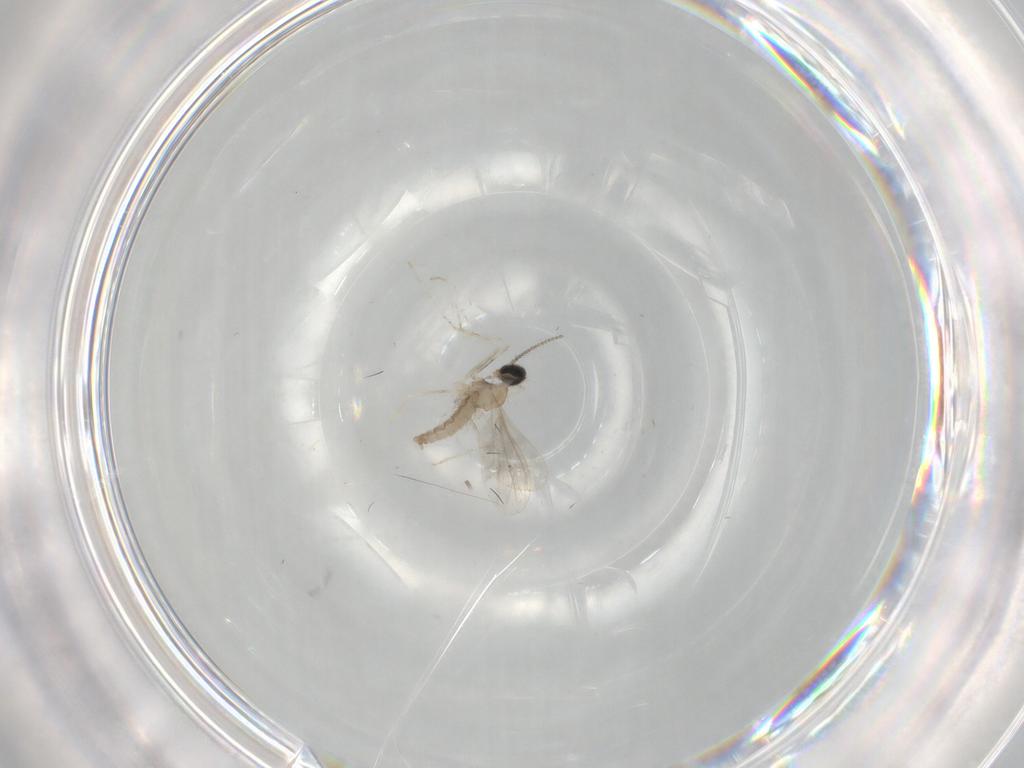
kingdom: Animalia
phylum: Arthropoda
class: Insecta
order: Diptera
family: Cecidomyiidae
